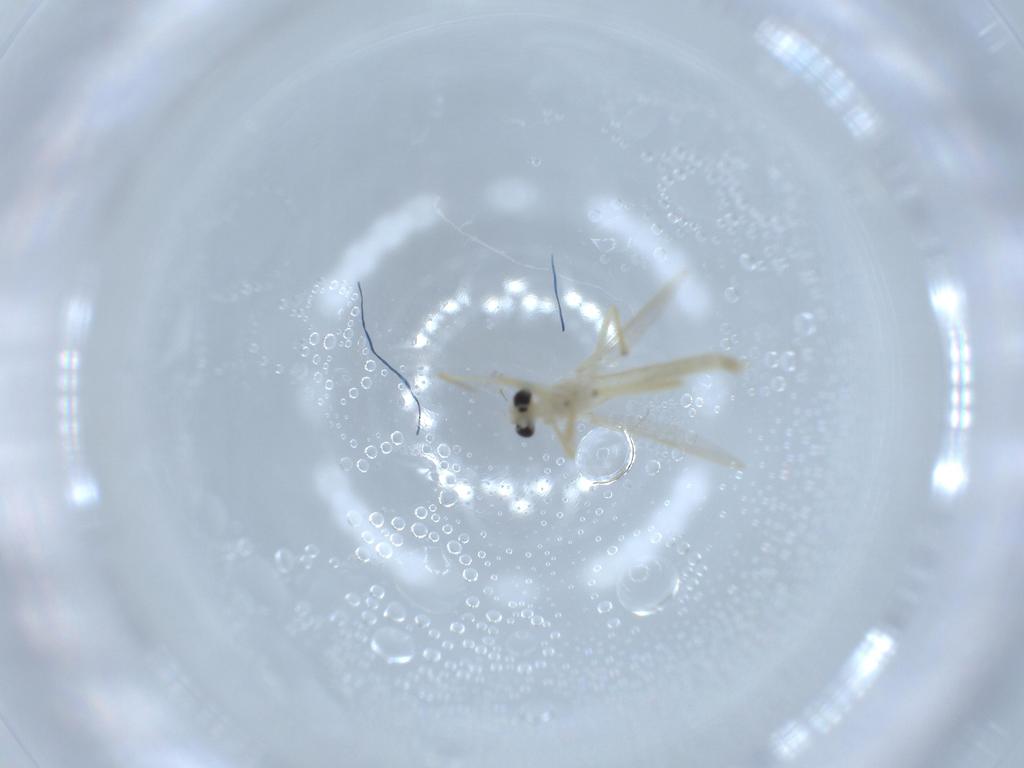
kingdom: Animalia
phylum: Arthropoda
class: Insecta
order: Diptera
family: Chironomidae
